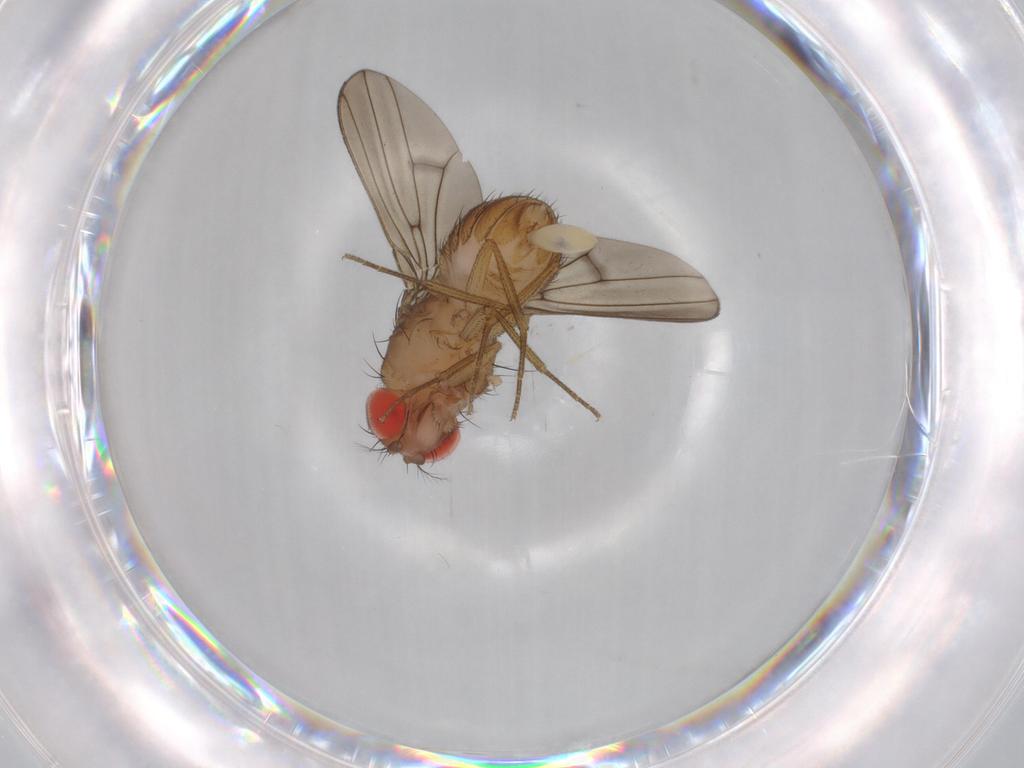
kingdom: Animalia
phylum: Arthropoda
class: Insecta
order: Diptera
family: Drosophilidae
